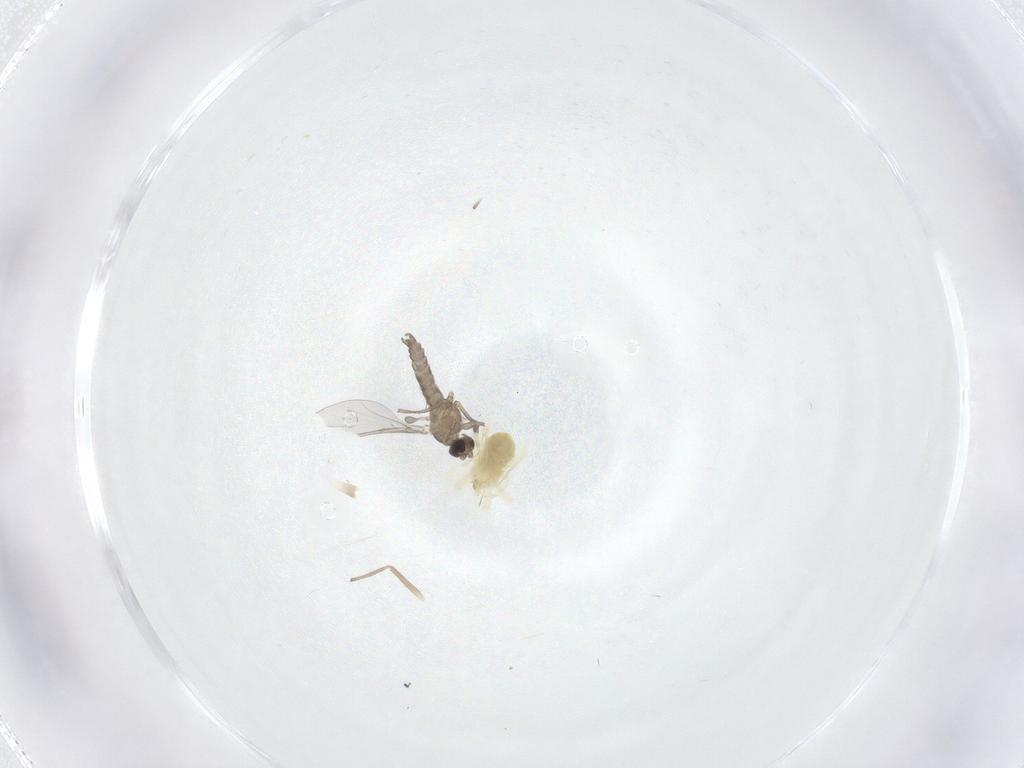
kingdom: Animalia
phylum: Arthropoda
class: Insecta
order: Diptera
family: Cecidomyiidae
